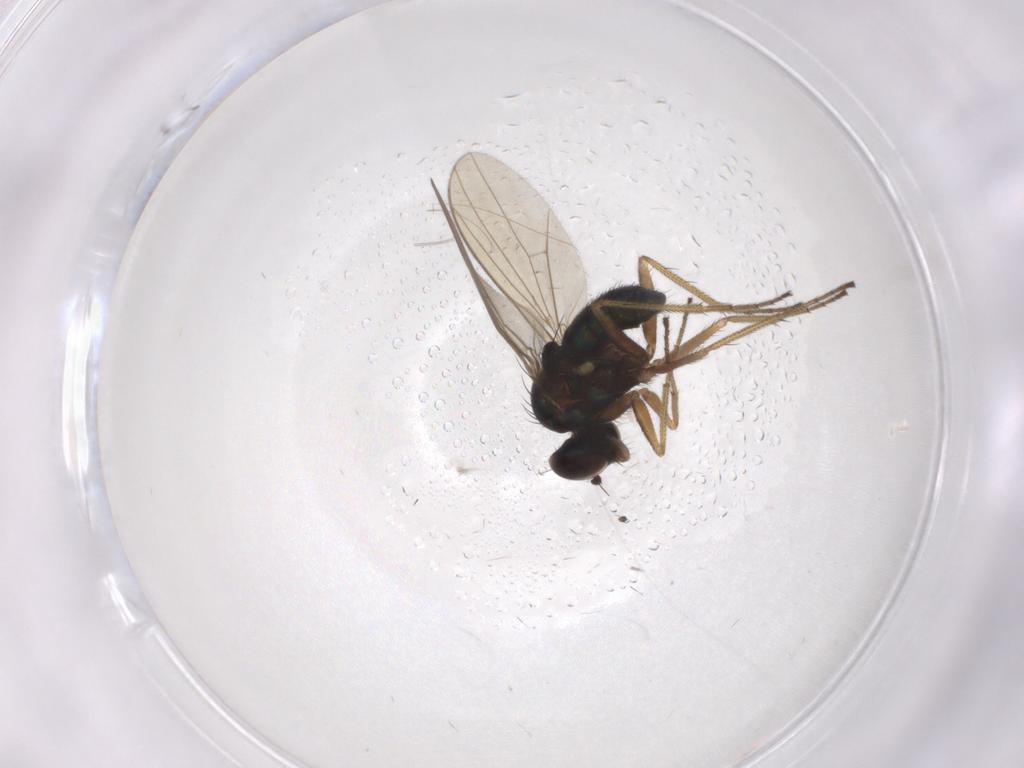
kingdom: Animalia
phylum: Arthropoda
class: Insecta
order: Diptera
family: Dolichopodidae
